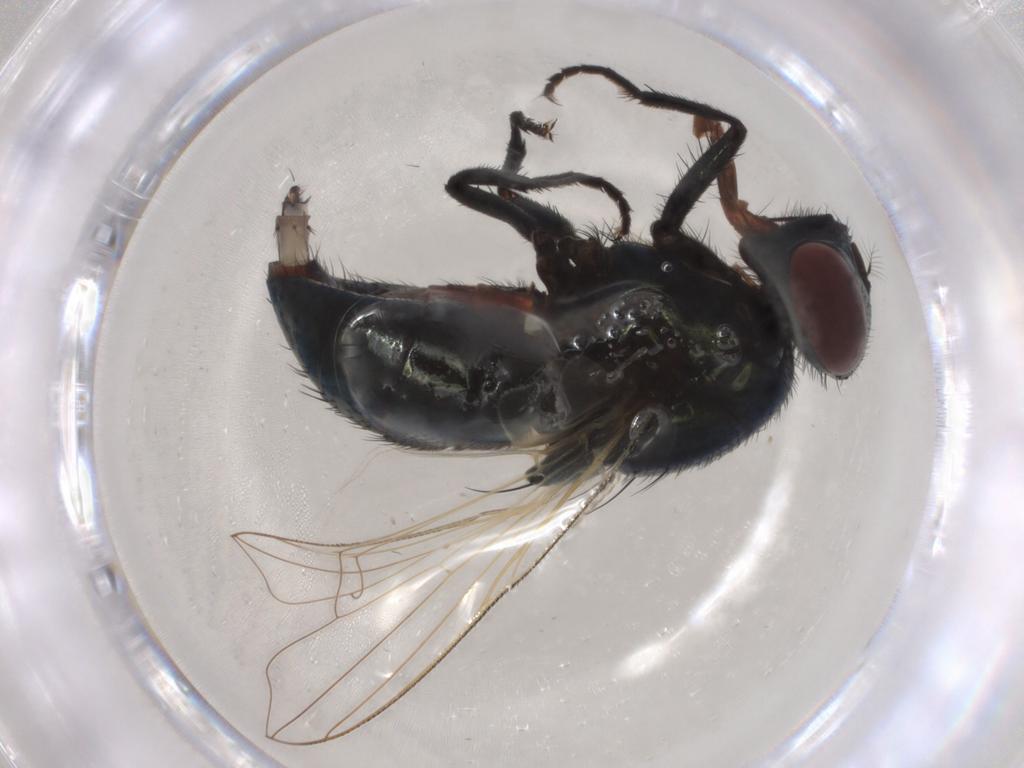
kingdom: Animalia
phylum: Arthropoda
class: Insecta
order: Diptera
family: Muscidae
